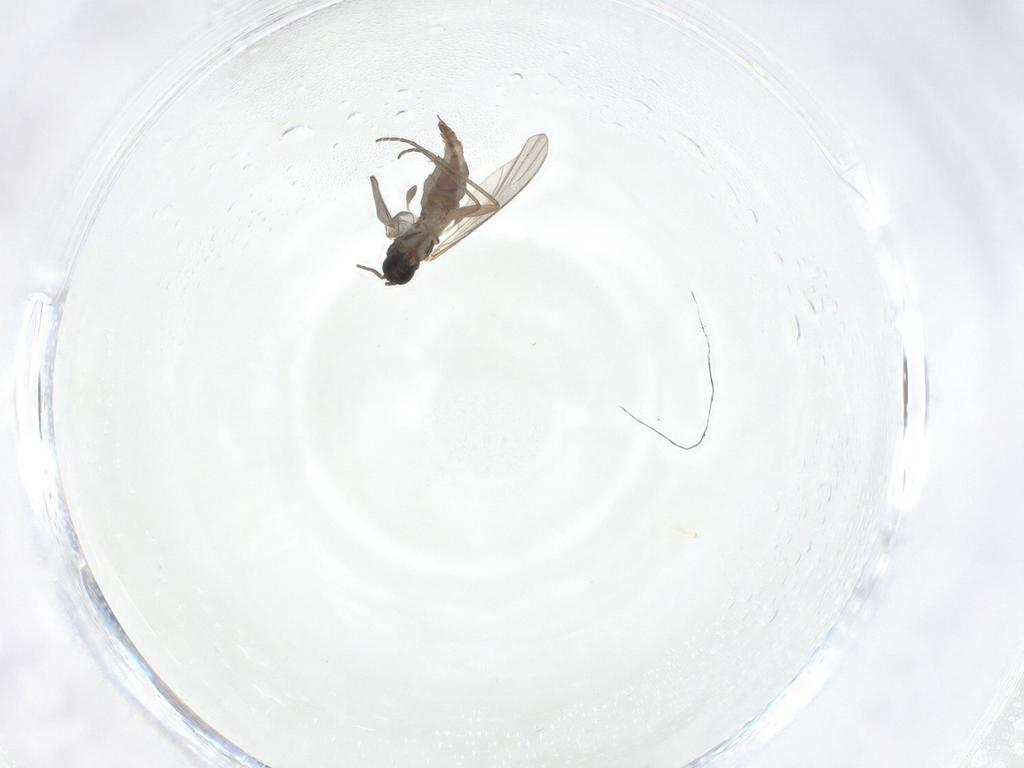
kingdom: Animalia
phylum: Arthropoda
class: Insecta
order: Diptera
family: Sciaridae
